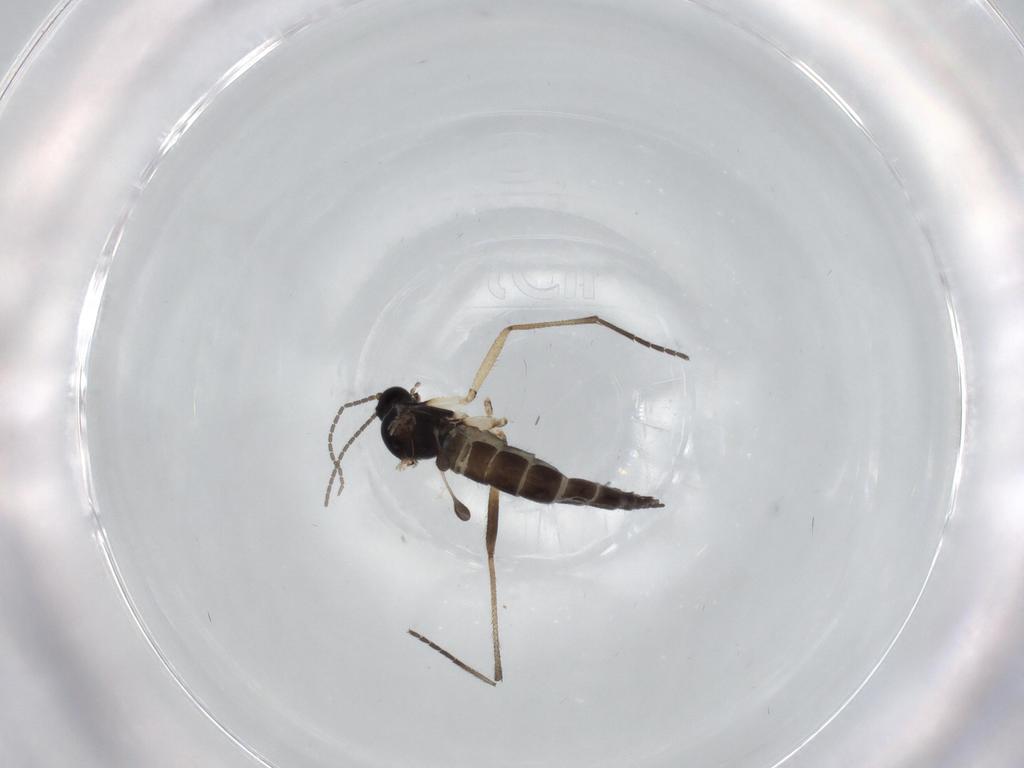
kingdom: Animalia
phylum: Arthropoda
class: Insecta
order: Diptera
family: Sciaridae
